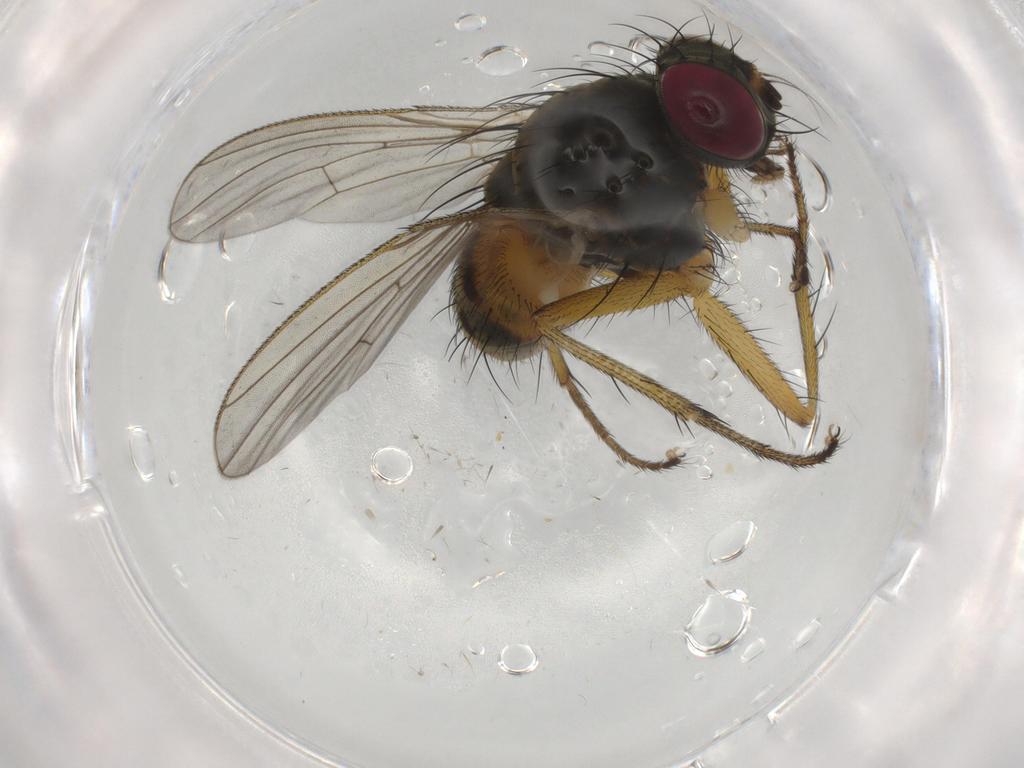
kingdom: Animalia
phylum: Arthropoda
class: Insecta
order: Diptera
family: Muscidae
